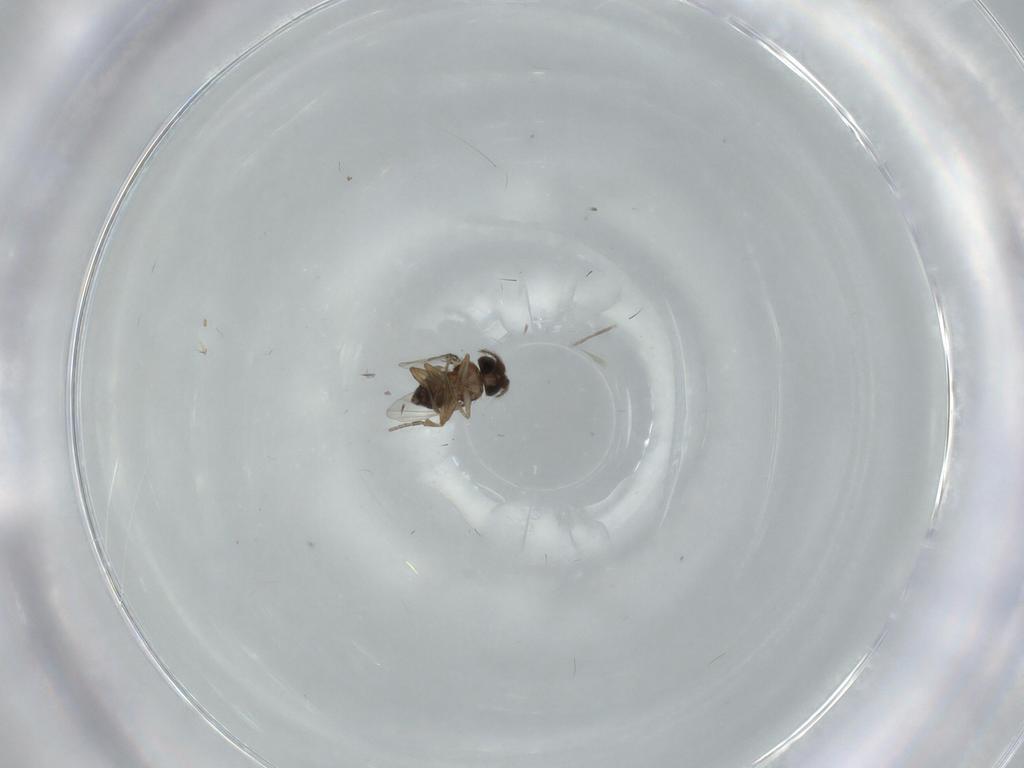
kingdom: Animalia
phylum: Arthropoda
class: Insecta
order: Diptera
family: Phoridae
